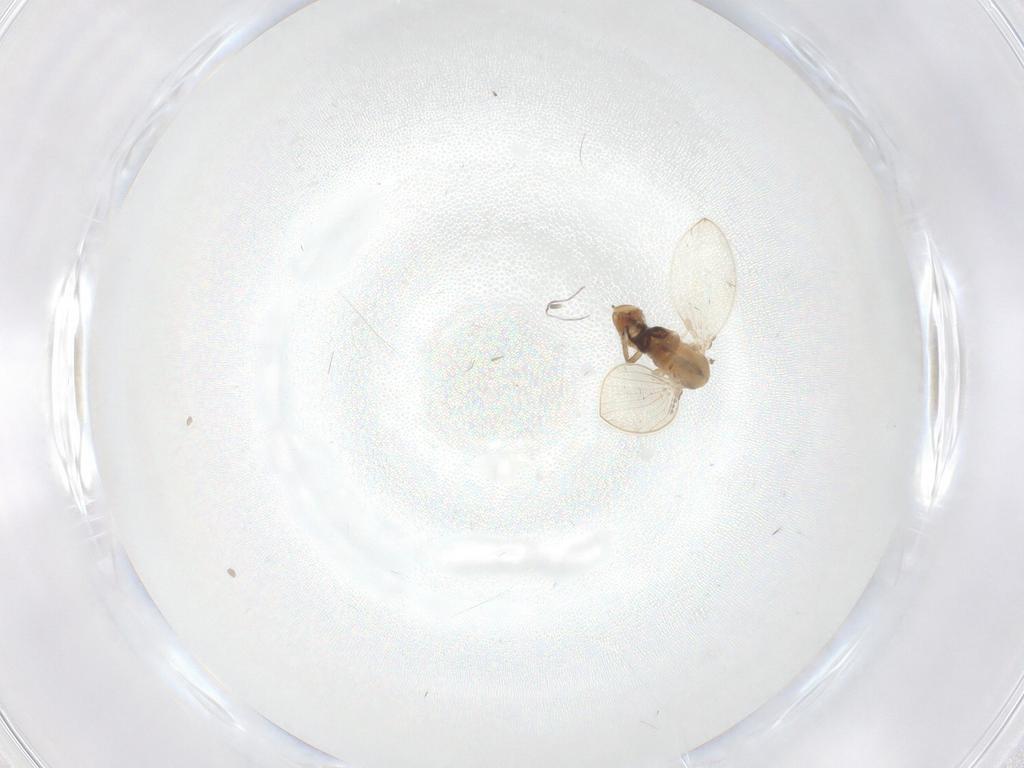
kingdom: Animalia
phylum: Arthropoda
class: Insecta
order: Diptera
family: Psychodidae
